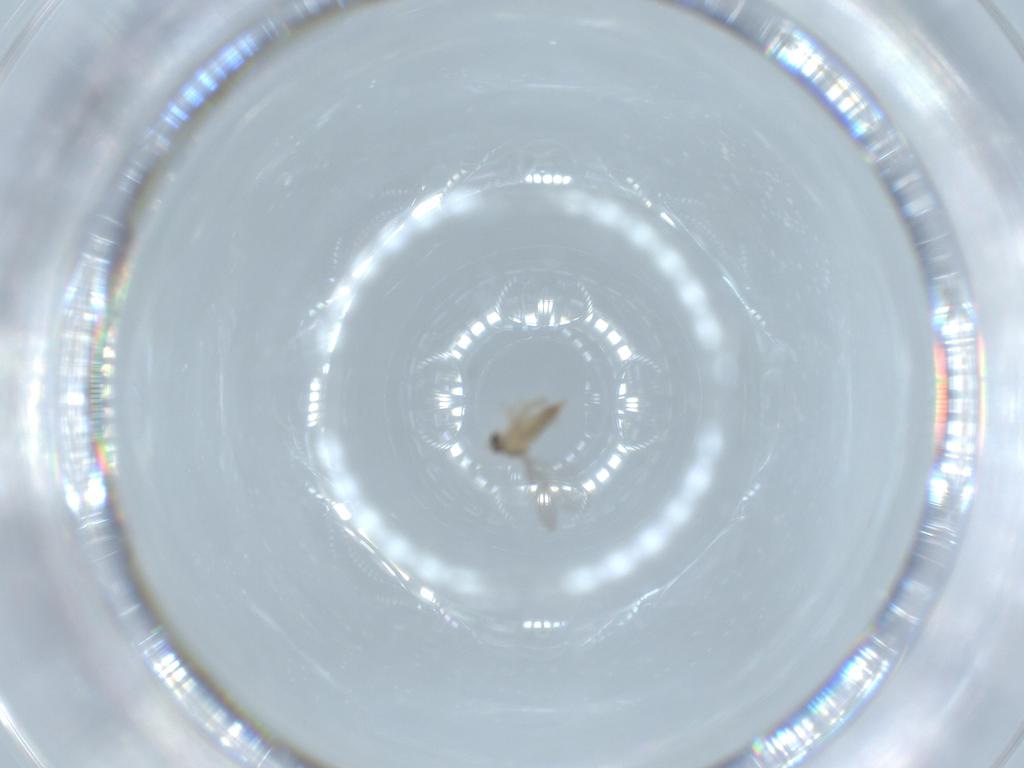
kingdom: Animalia
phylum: Arthropoda
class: Insecta
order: Diptera
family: Cecidomyiidae
